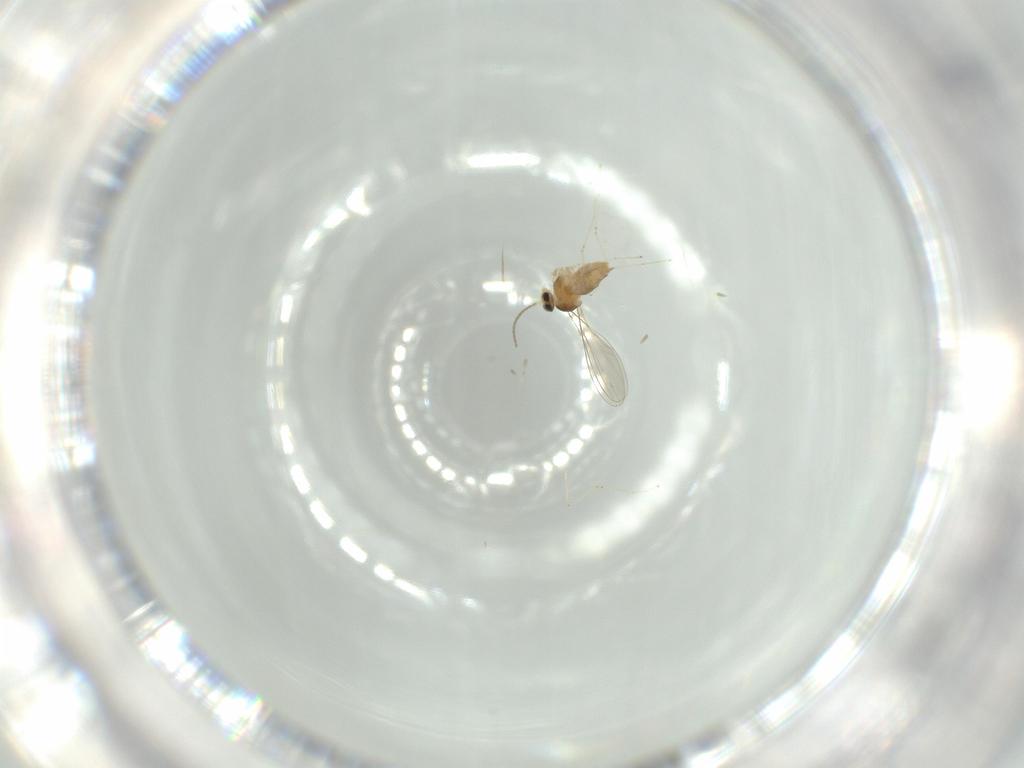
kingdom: Animalia
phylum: Arthropoda
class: Insecta
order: Diptera
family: Cecidomyiidae
